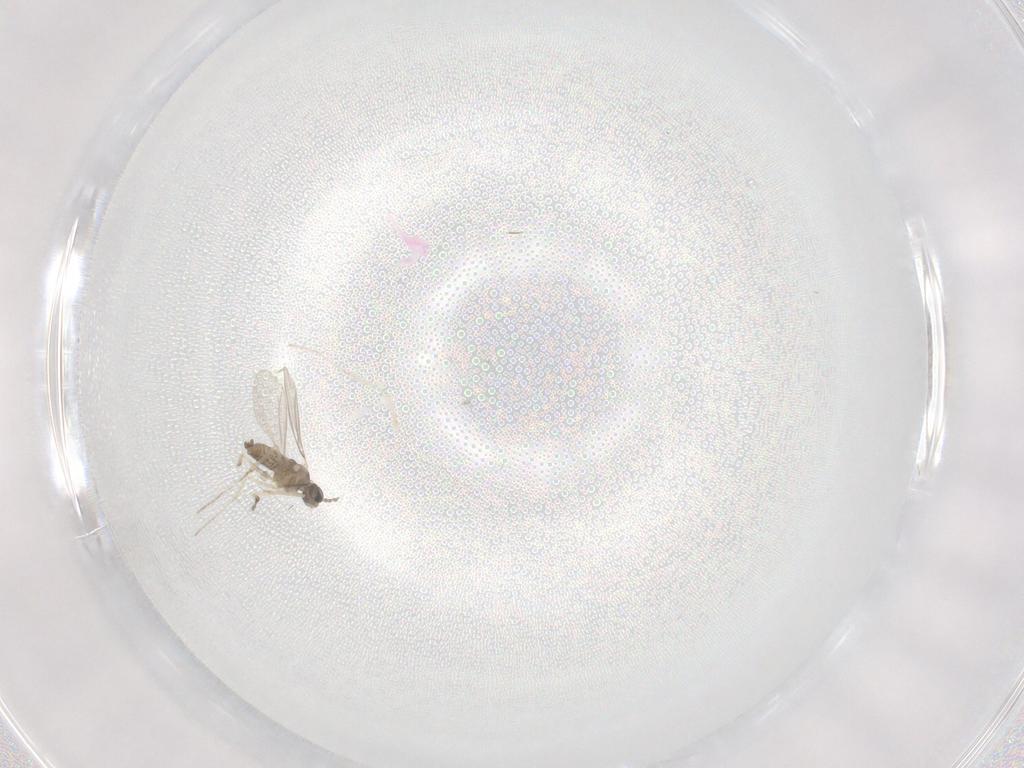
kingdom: Animalia
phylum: Arthropoda
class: Insecta
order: Diptera
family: Cecidomyiidae
